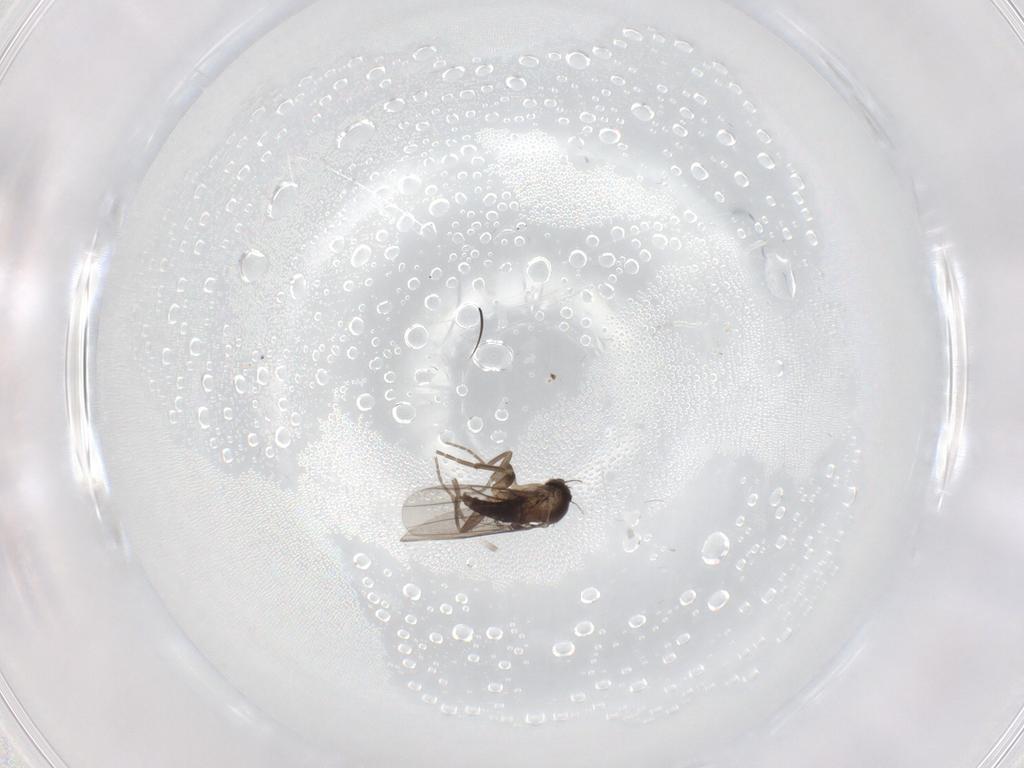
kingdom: Animalia
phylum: Arthropoda
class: Insecta
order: Diptera
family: Psychodidae
